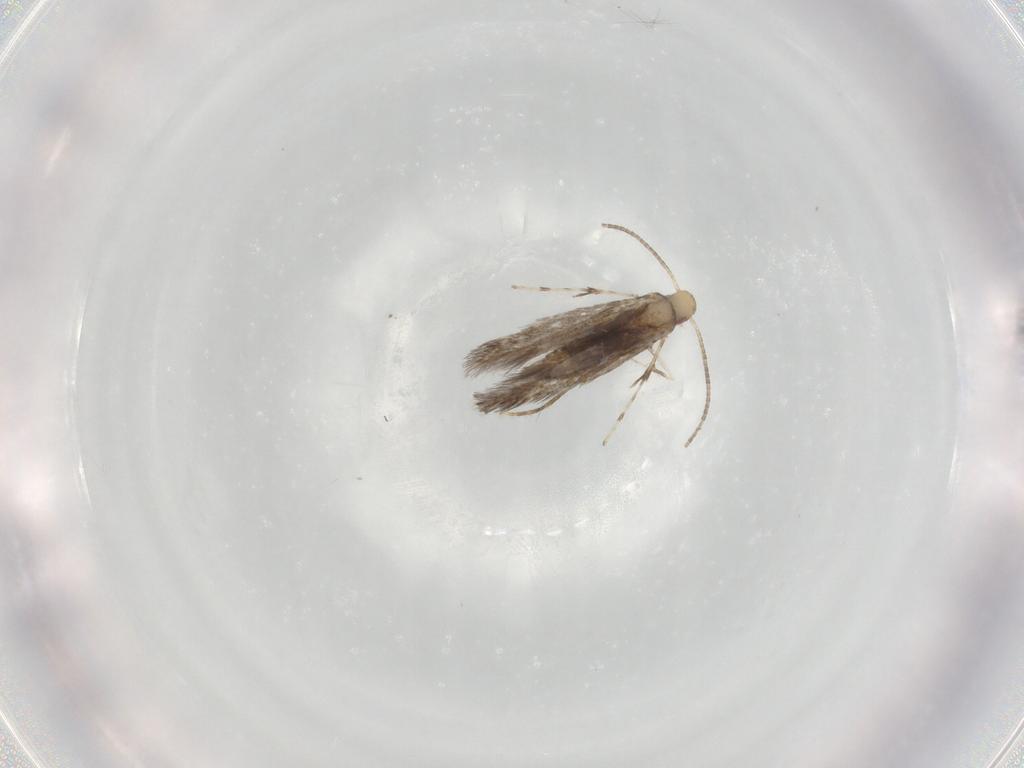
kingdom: Animalia
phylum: Arthropoda
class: Insecta
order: Lepidoptera
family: Gracillariidae
